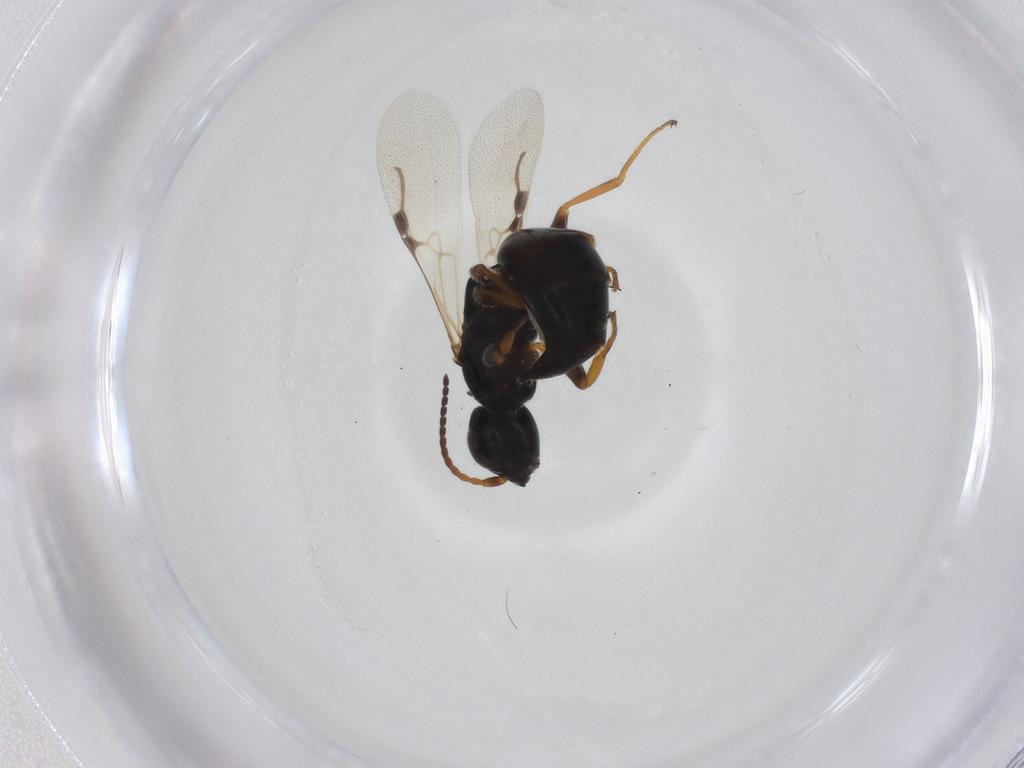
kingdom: Animalia
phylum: Arthropoda
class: Insecta
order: Hymenoptera
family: Bethylidae
